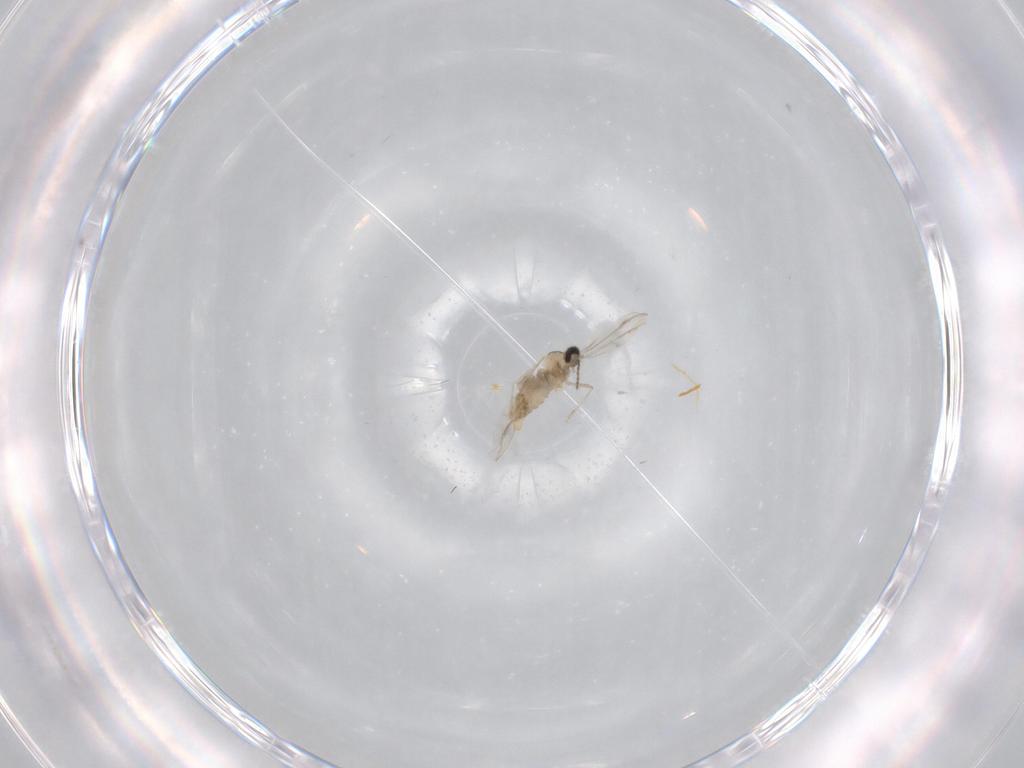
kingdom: Animalia
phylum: Arthropoda
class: Insecta
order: Diptera
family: Cecidomyiidae
